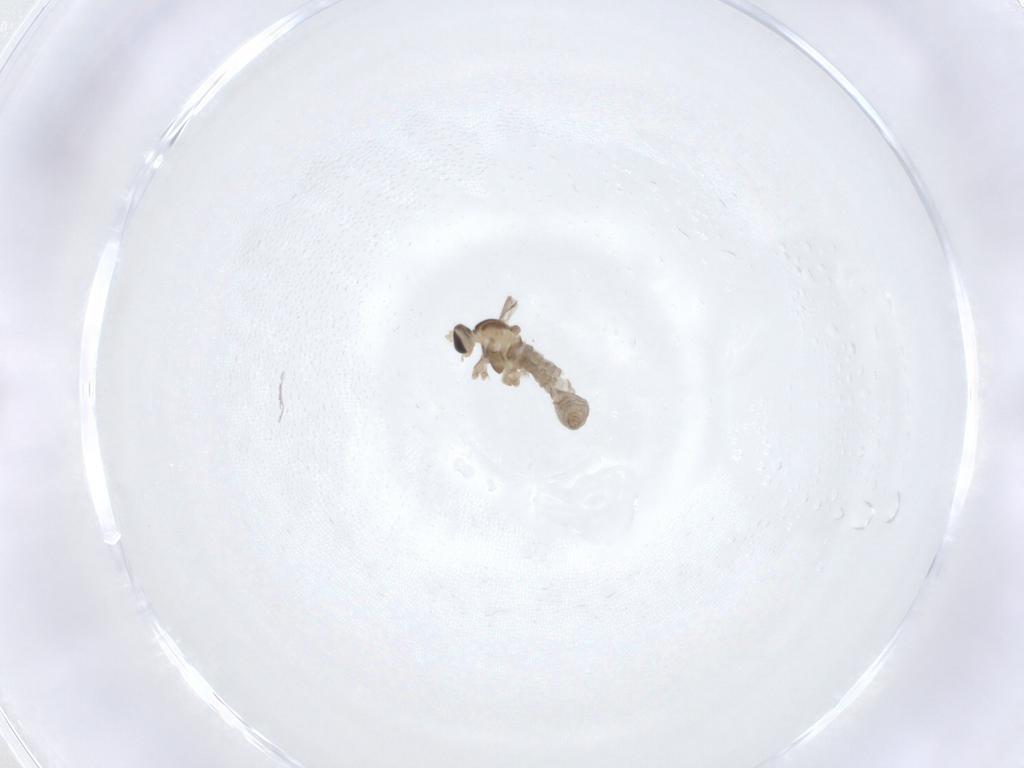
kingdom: Animalia
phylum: Arthropoda
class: Insecta
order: Diptera
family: Cecidomyiidae
